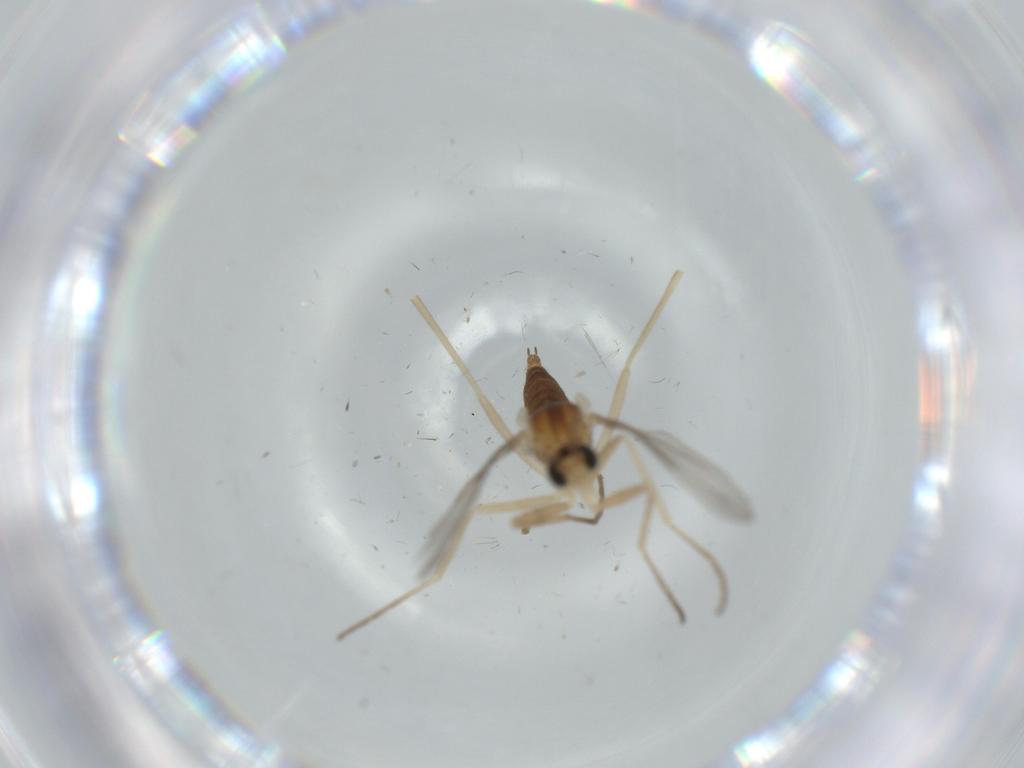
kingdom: Animalia
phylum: Arthropoda
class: Insecta
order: Diptera
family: Cecidomyiidae
